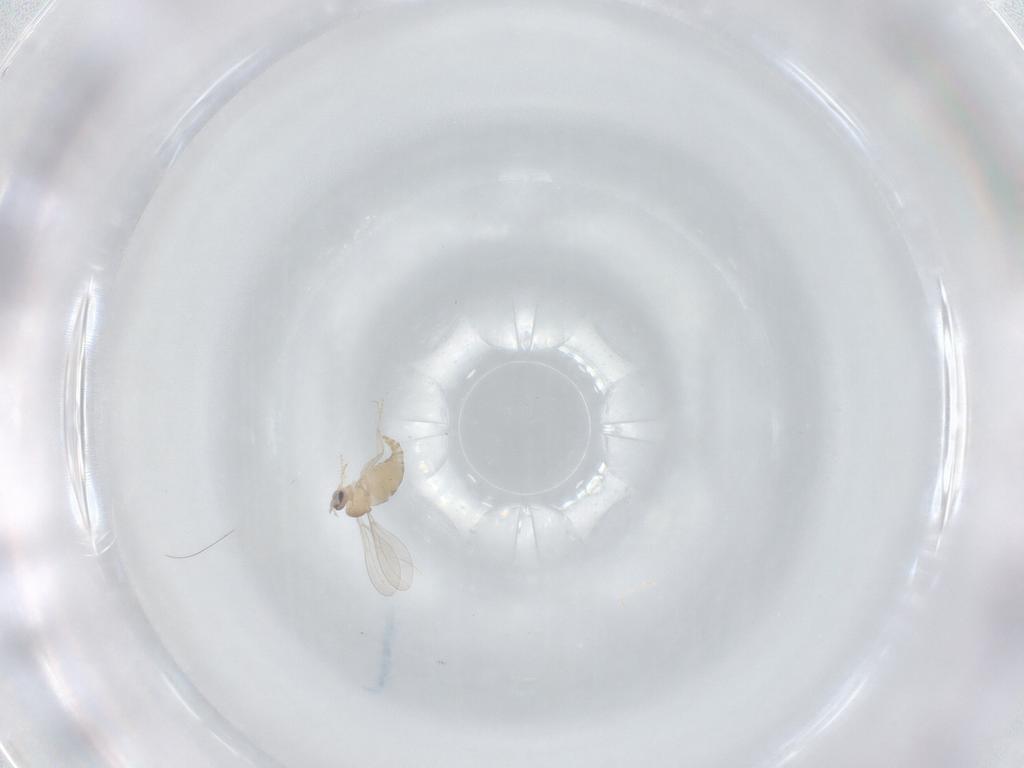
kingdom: Animalia
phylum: Arthropoda
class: Insecta
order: Diptera
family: Cecidomyiidae
